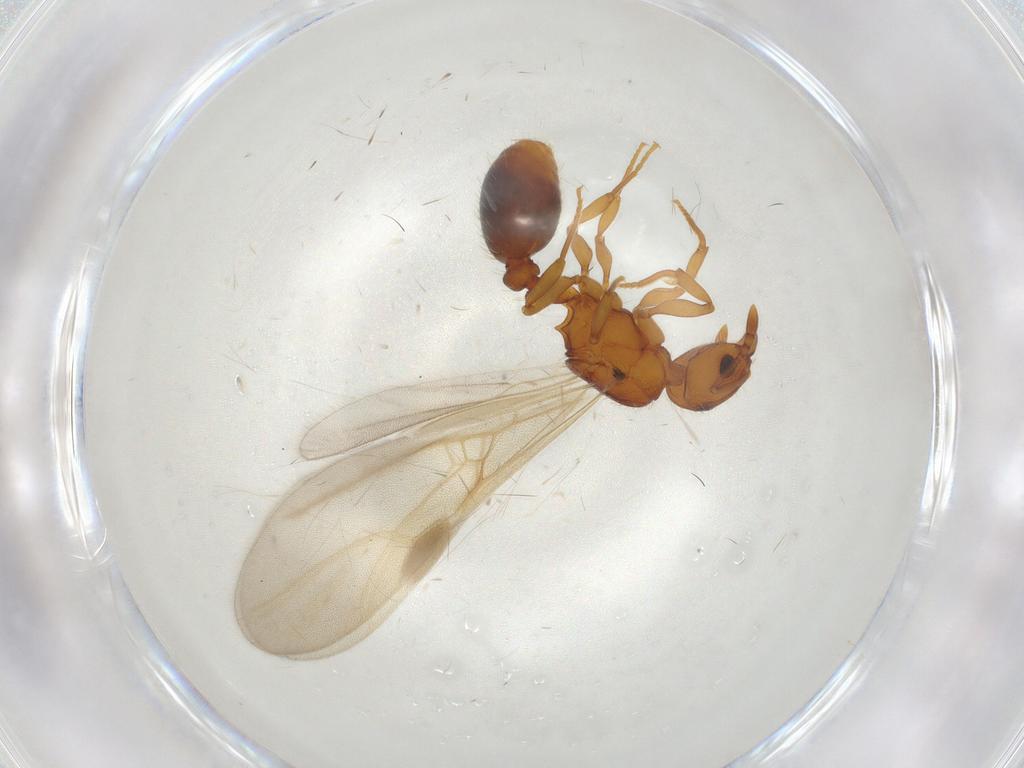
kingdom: Animalia
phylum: Arthropoda
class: Insecta
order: Hymenoptera
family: Formicidae
